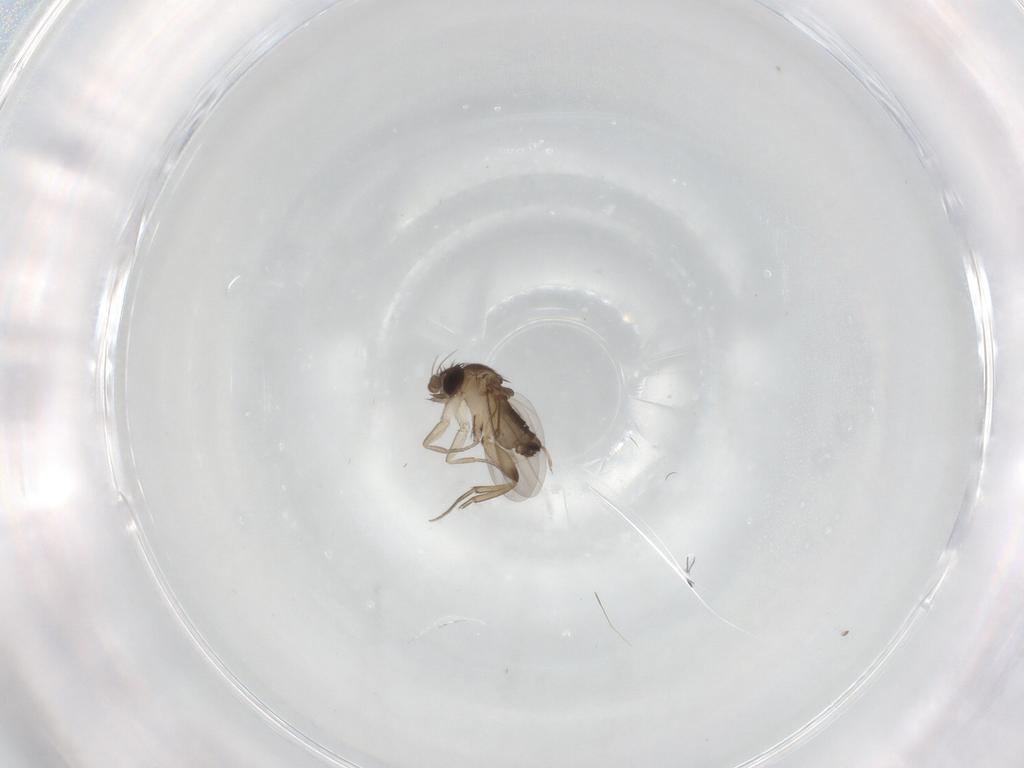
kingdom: Animalia
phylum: Arthropoda
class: Insecta
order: Diptera
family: Phoridae
